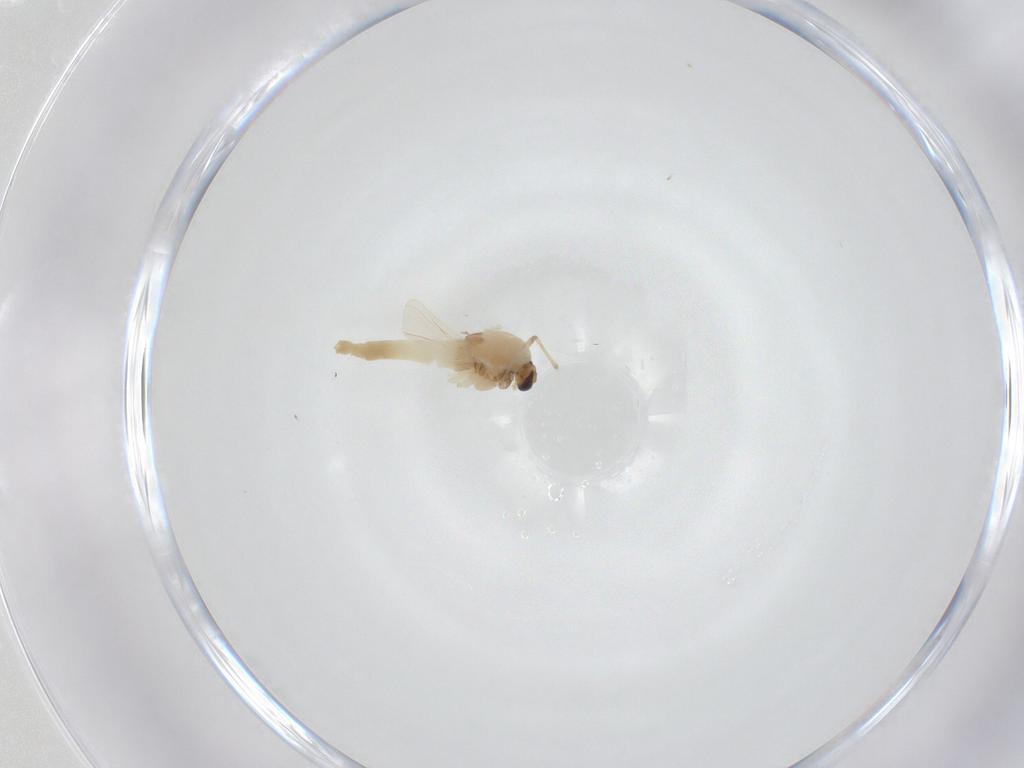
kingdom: Animalia
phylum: Arthropoda
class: Insecta
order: Diptera
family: Chironomidae
